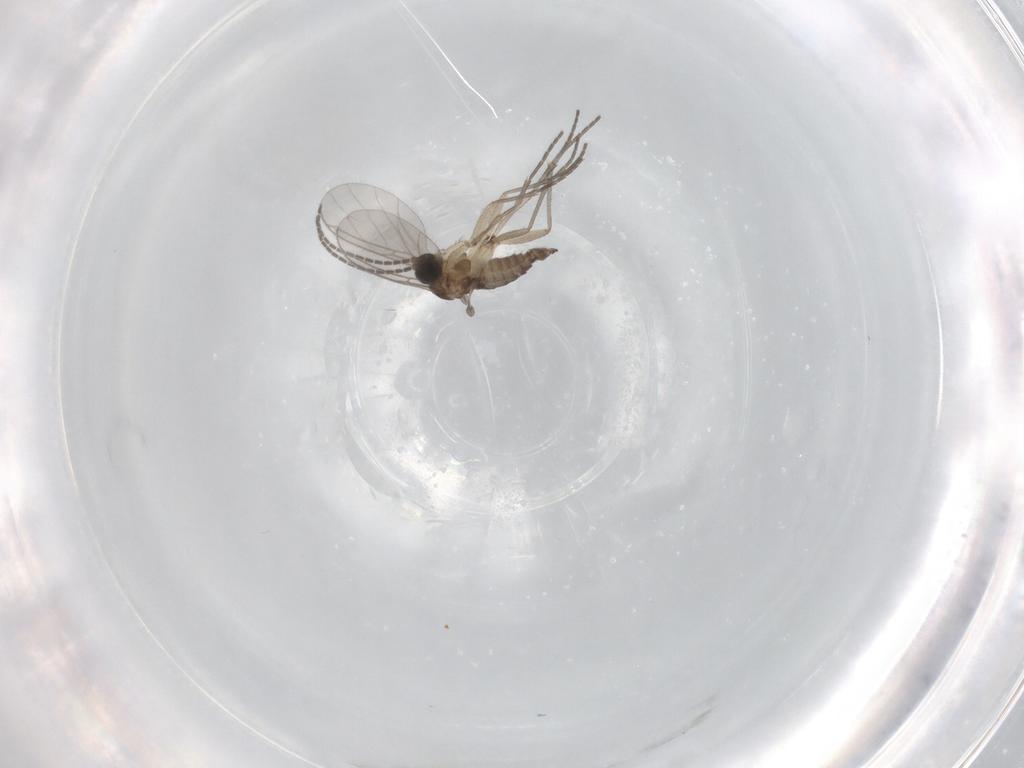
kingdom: Animalia
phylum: Arthropoda
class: Insecta
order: Diptera
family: Sciaridae
